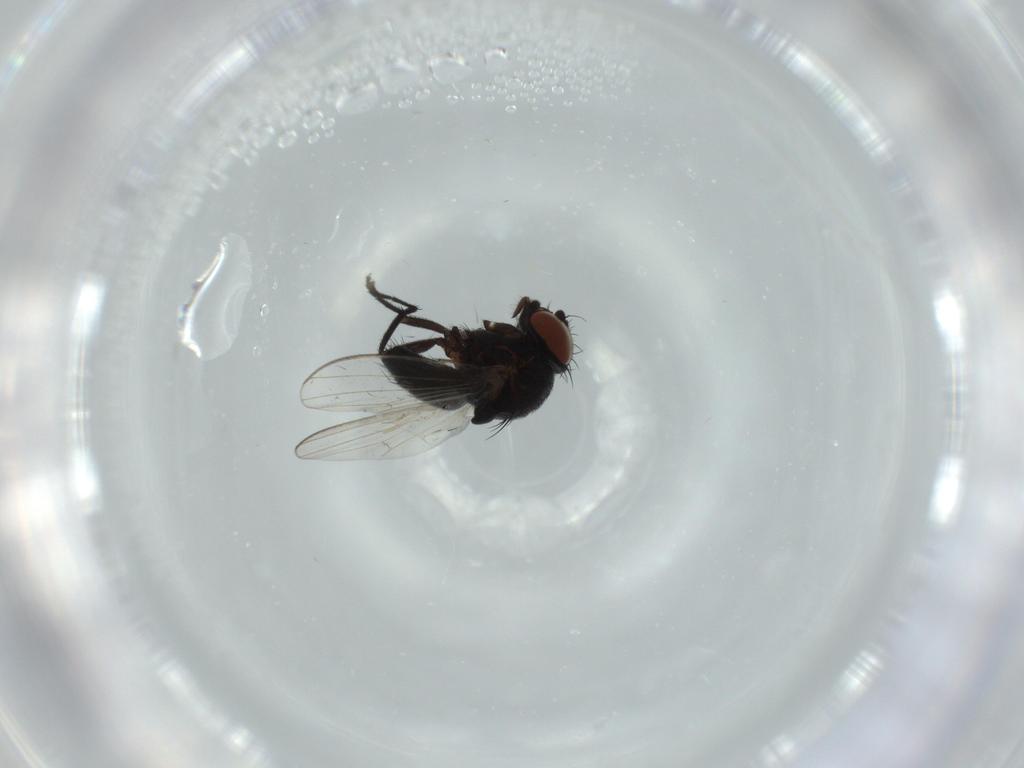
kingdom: Animalia
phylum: Arthropoda
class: Insecta
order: Diptera
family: Milichiidae
